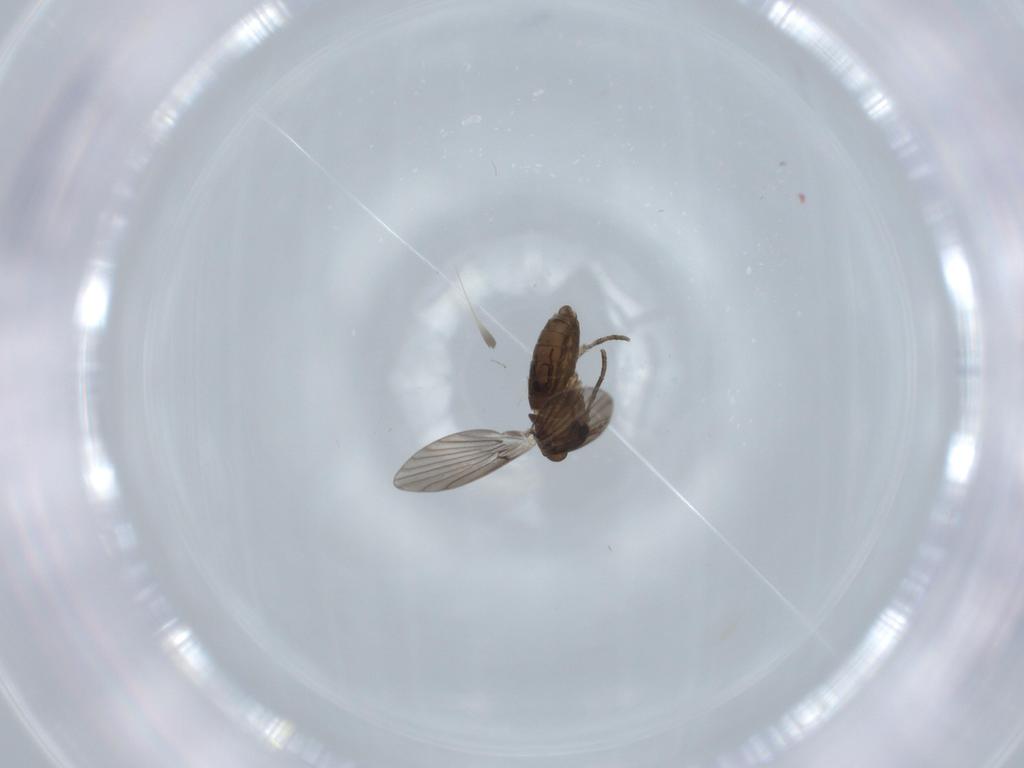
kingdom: Animalia
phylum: Arthropoda
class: Insecta
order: Diptera
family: Psychodidae
